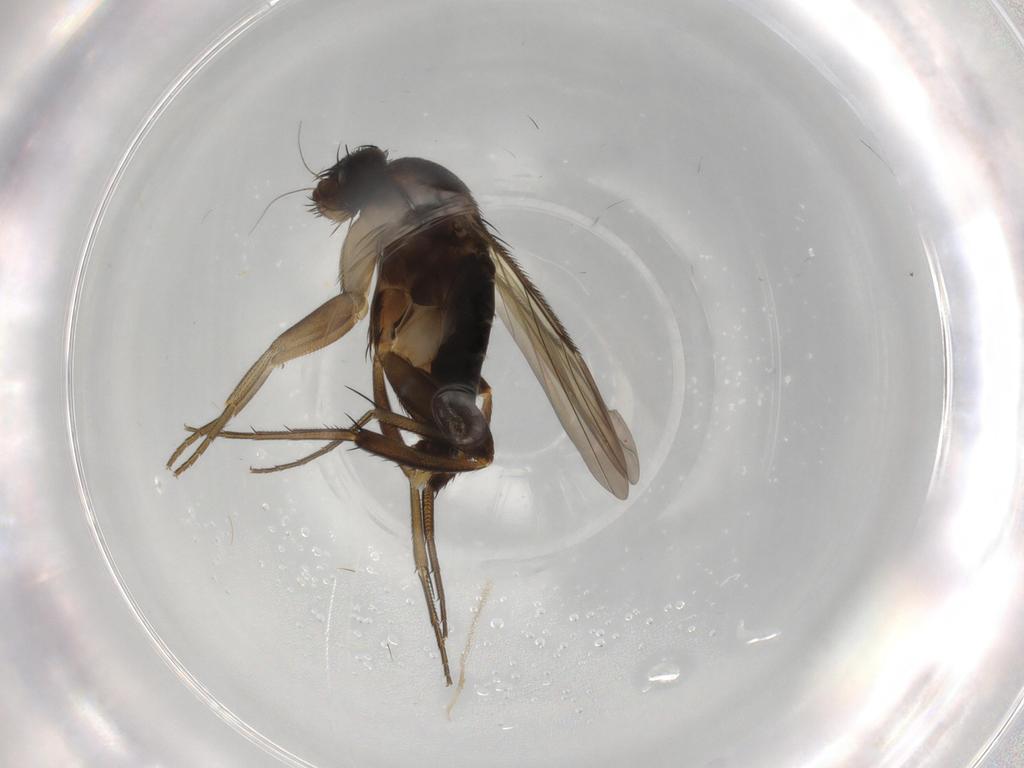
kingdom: Animalia
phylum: Arthropoda
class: Insecta
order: Diptera
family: Phoridae
